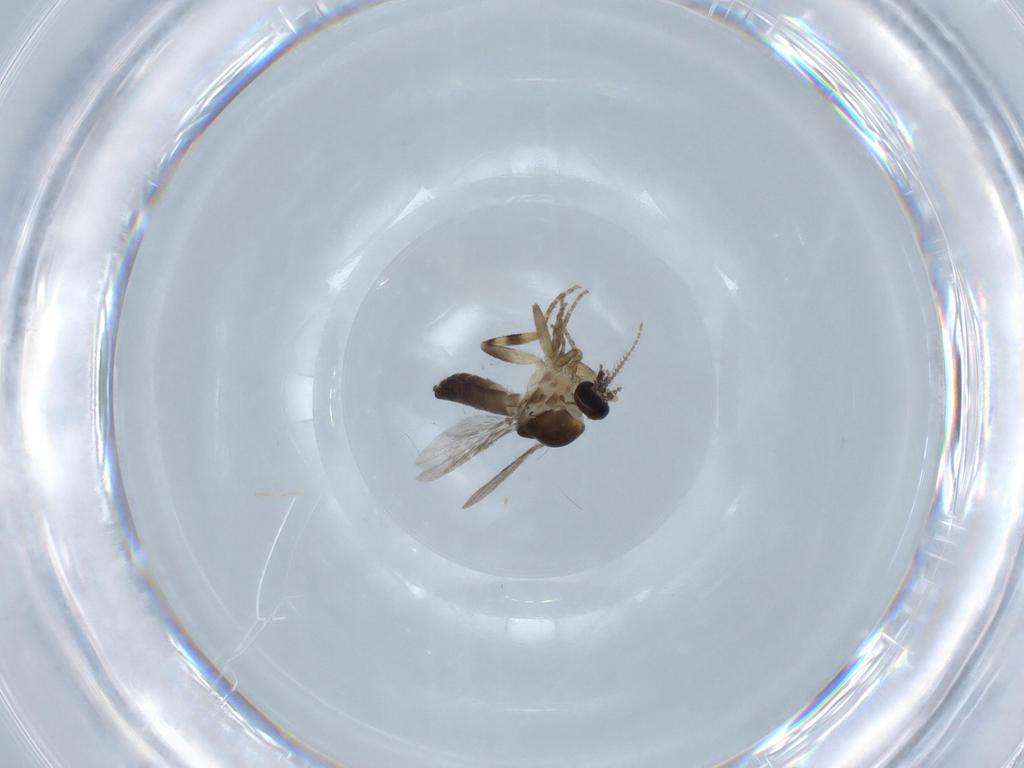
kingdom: Animalia
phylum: Arthropoda
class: Insecta
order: Diptera
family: Ceratopogonidae
